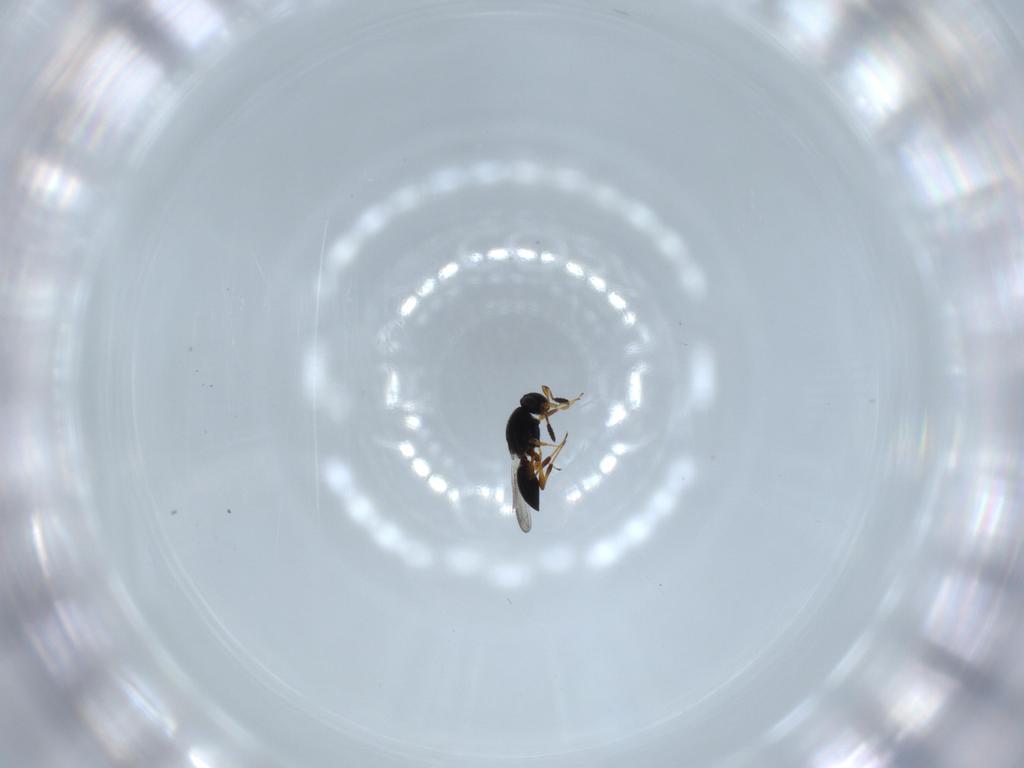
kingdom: Animalia
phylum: Arthropoda
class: Insecta
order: Hymenoptera
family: Platygastridae
